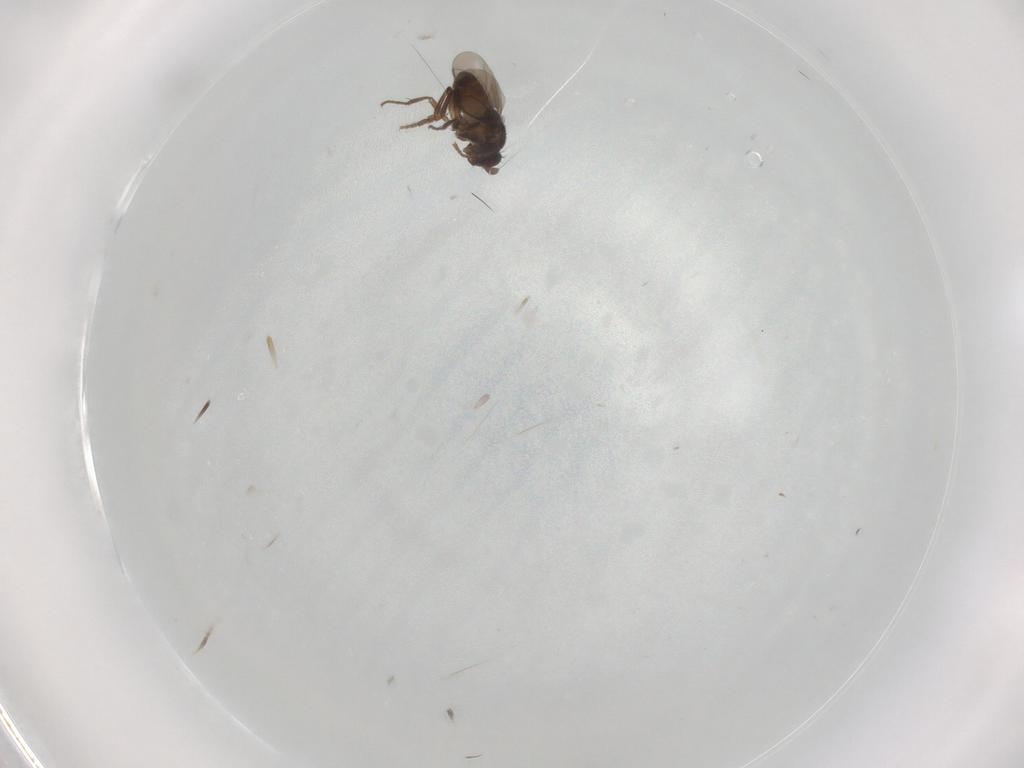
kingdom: Animalia
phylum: Arthropoda
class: Insecta
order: Diptera
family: Sphaeroceridae
